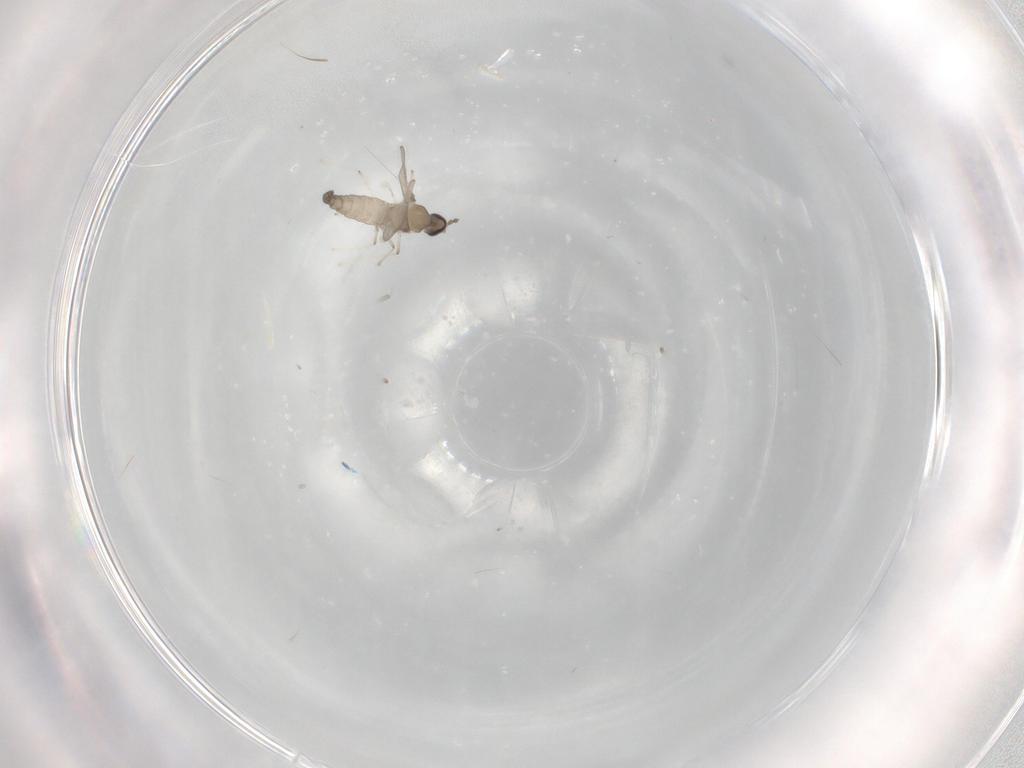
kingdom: Animalia
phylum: Arthropoda
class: Insecta
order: Diptera
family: Cecidomyiidae
